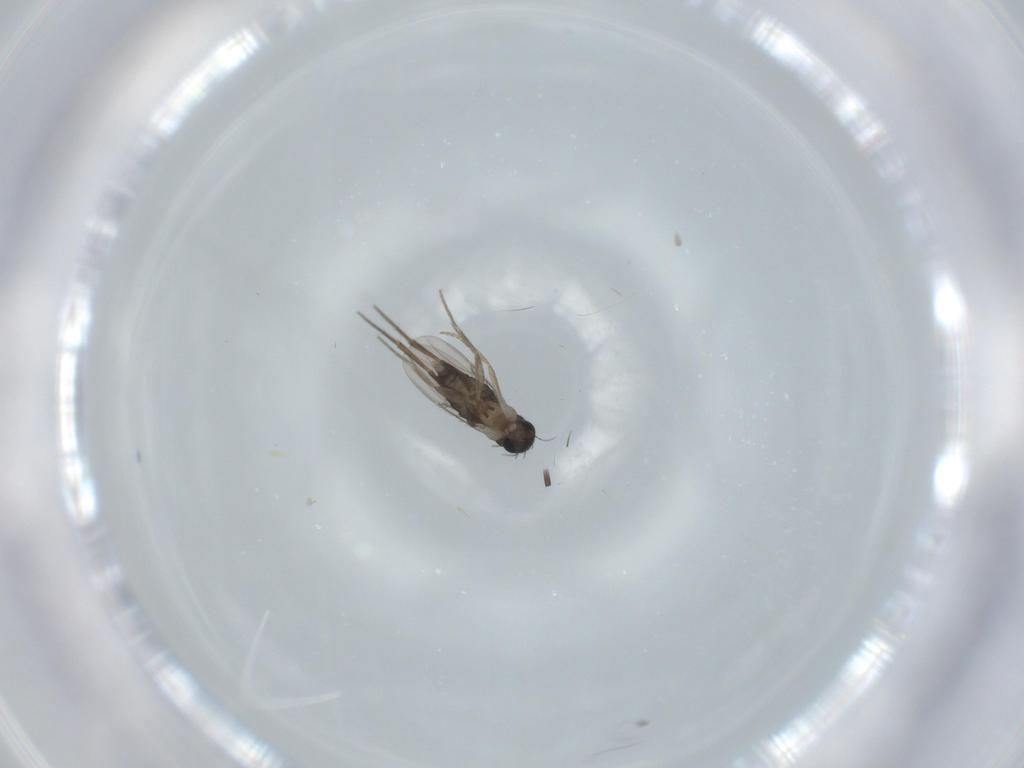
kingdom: Animalia
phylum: Arthropoda
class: Insecta
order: Diptera
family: Phoridae
